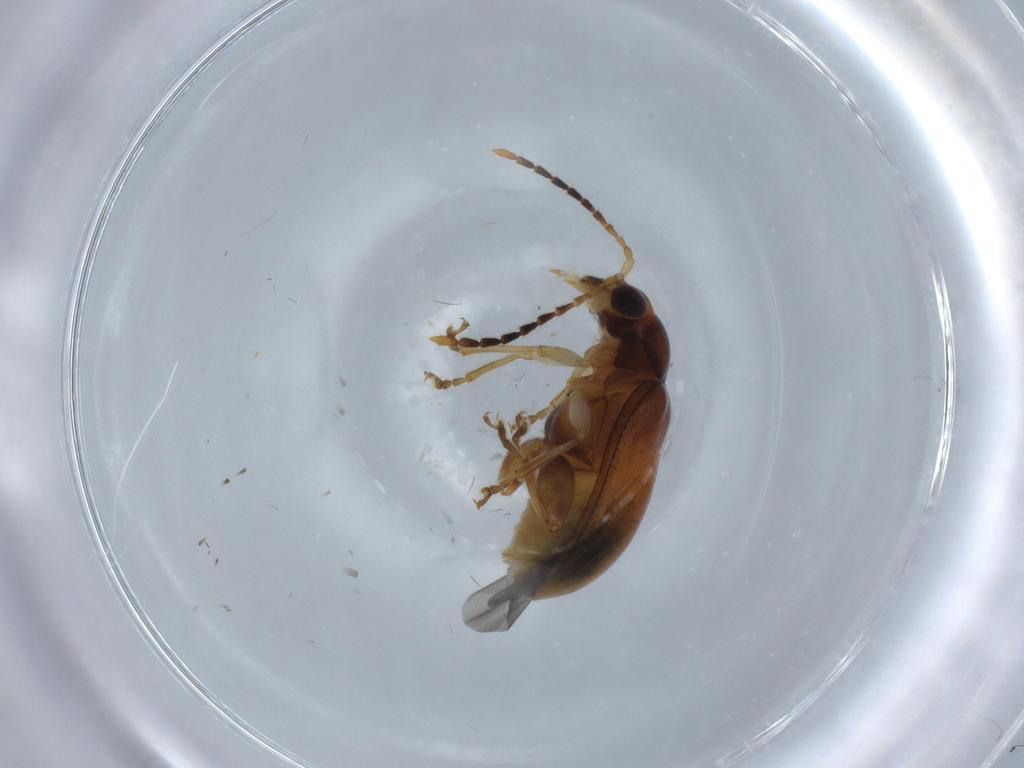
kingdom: Animalia
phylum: Arthropoda
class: Insecta
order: Coleoptera
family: Chrysomelidae
